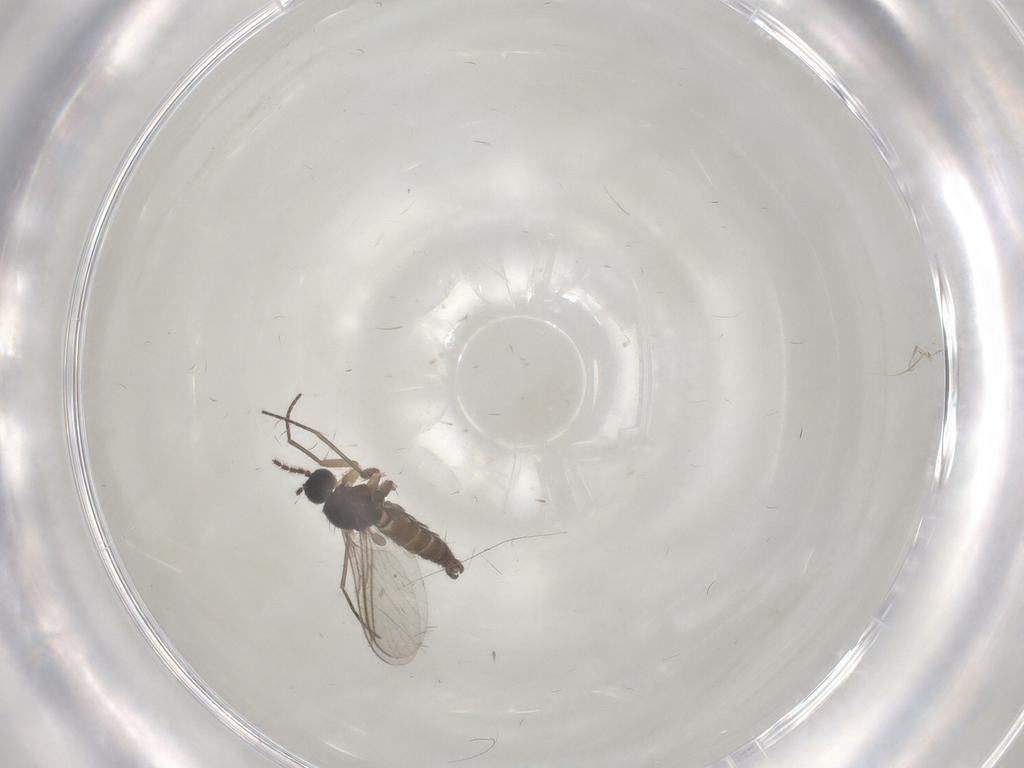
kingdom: Animalia
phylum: Arthropoda
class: Insecta
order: Diptera
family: Sciaridae
